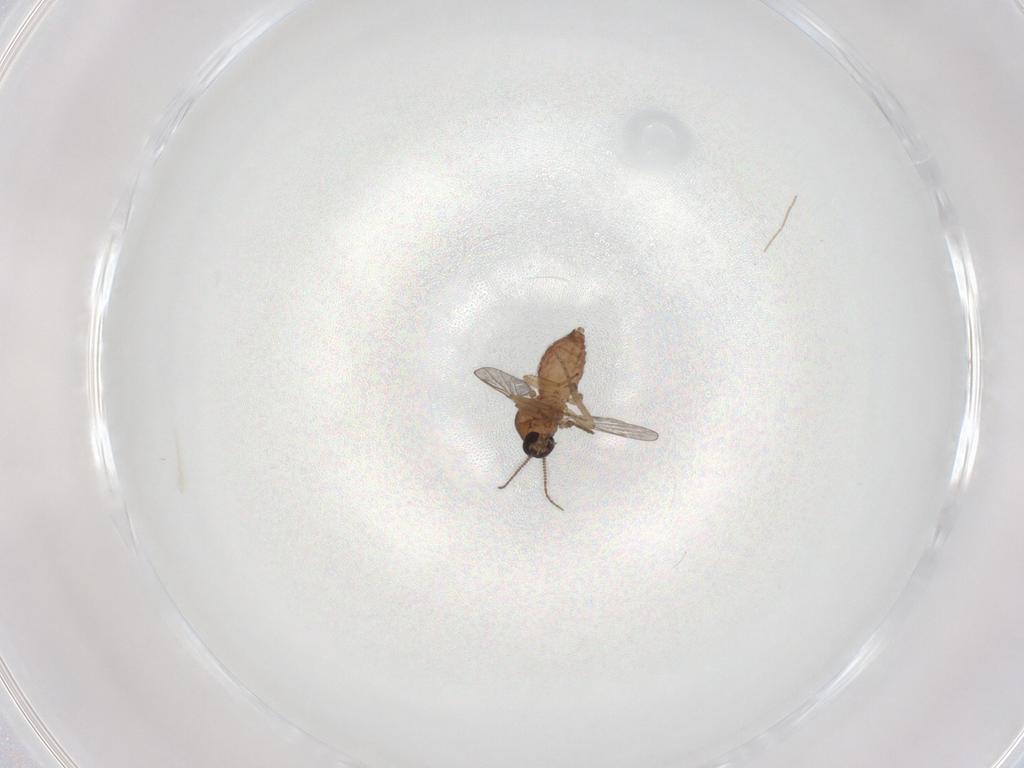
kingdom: Animalia
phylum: Arthropoda
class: Insecta
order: Diptera
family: Ceratopogonidae
